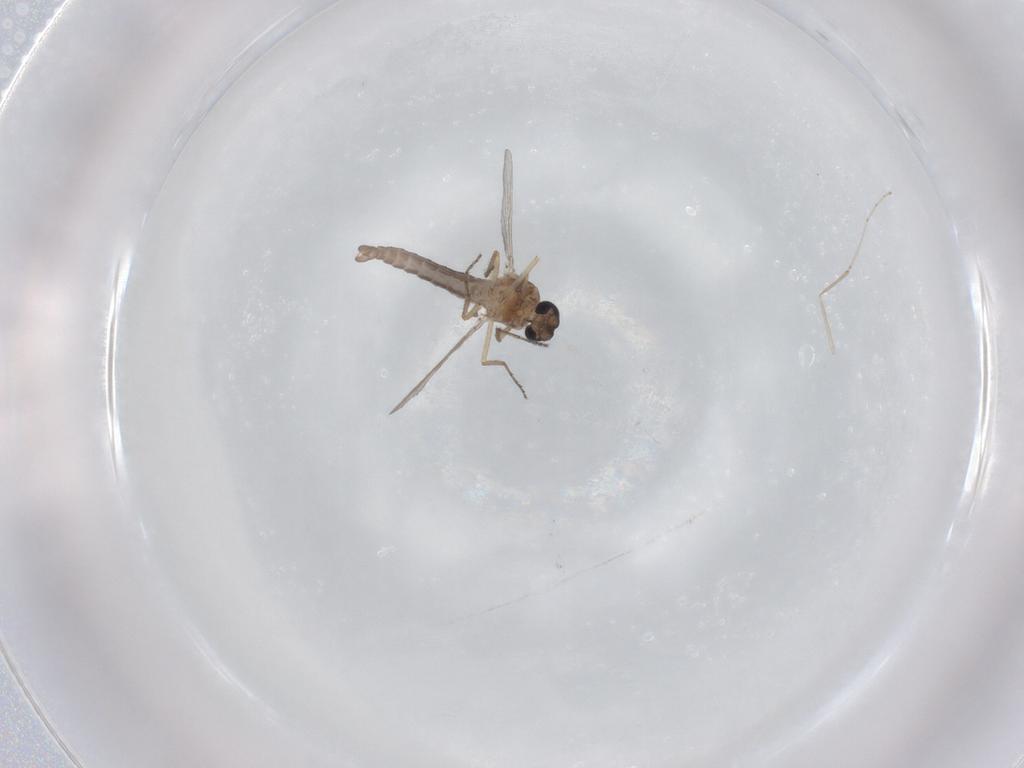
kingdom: Animalia
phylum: Arthropoda
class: Insecta
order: Diptera
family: Ceratopogonidae
